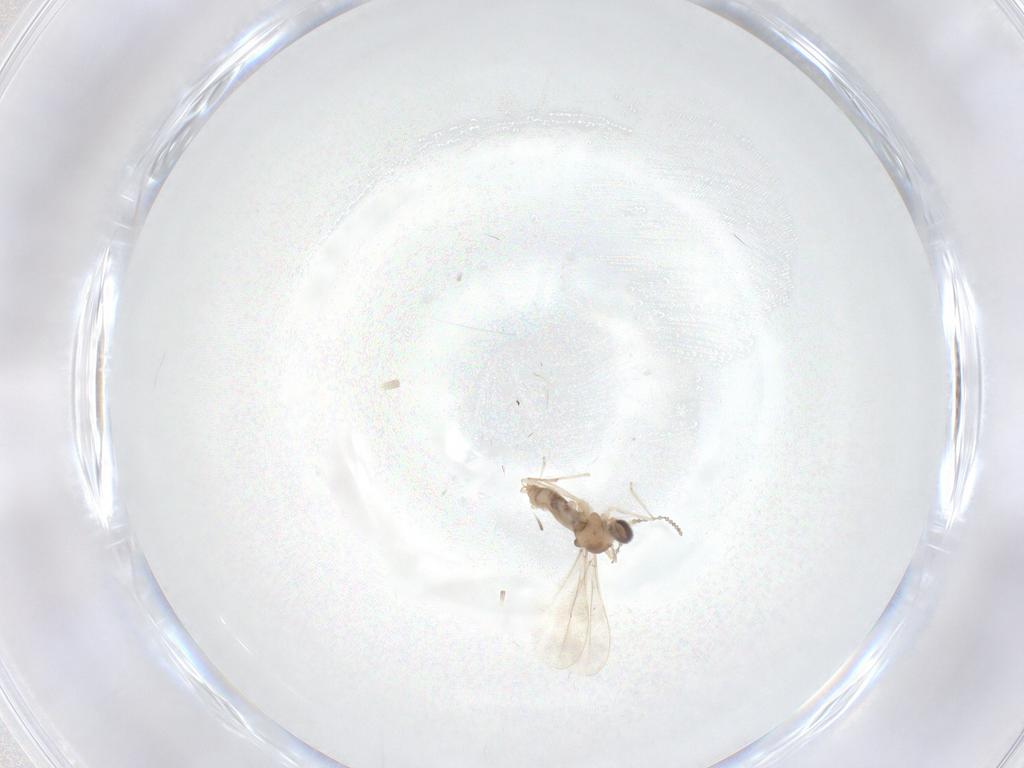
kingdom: Animalia
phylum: Arthropoda
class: Insecta
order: Diptera
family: Cecidomyiidae
